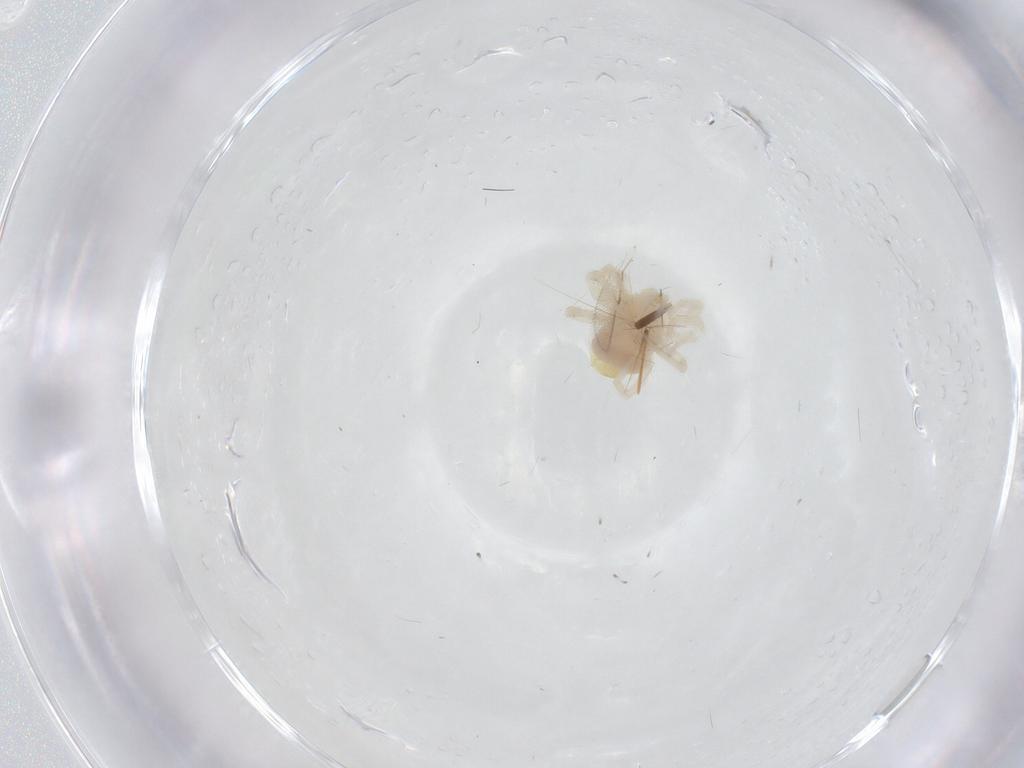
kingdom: Animalia
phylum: Arthropoda
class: Arachnida
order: Trombidiformes
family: Anystidae
